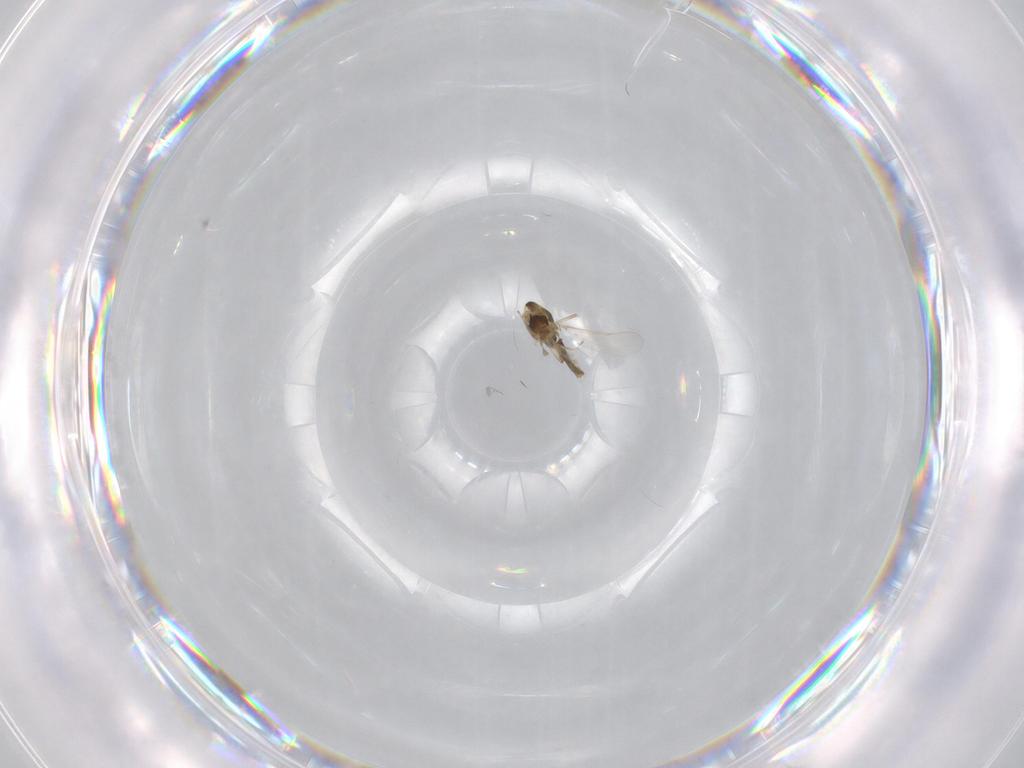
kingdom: Animalia
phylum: Arthropoda
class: Insecta
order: Diptera
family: Chironomidae
